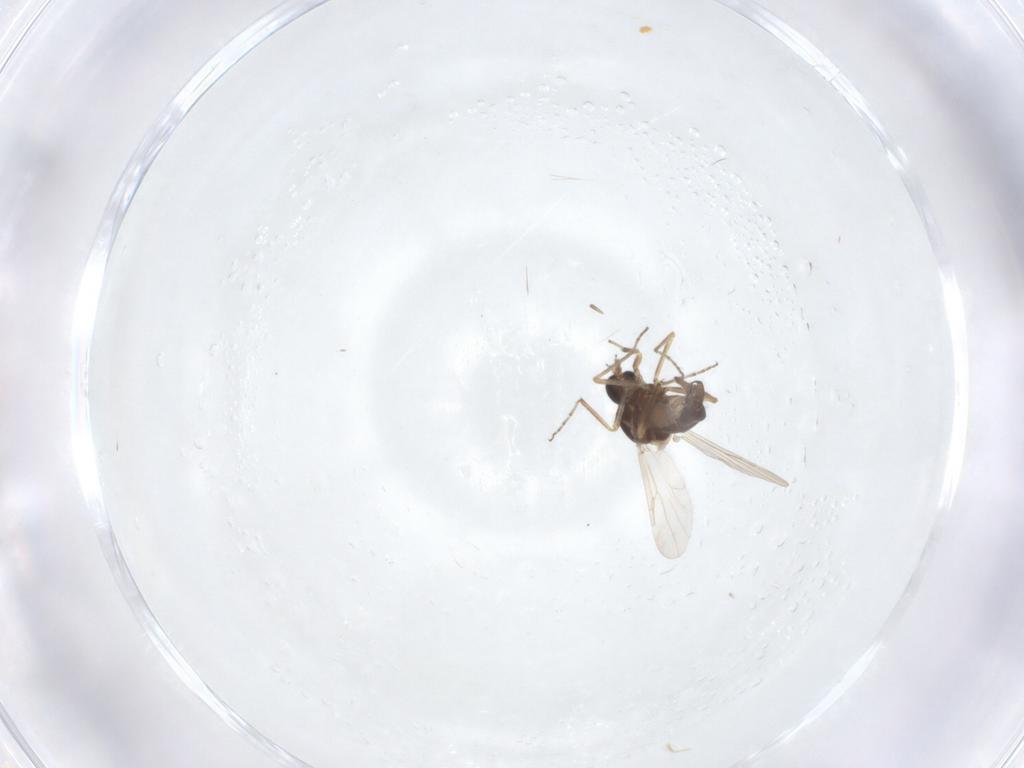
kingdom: Animalia
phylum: Arthropoda
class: Insecta
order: Diptera
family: Ceratopogonidae
